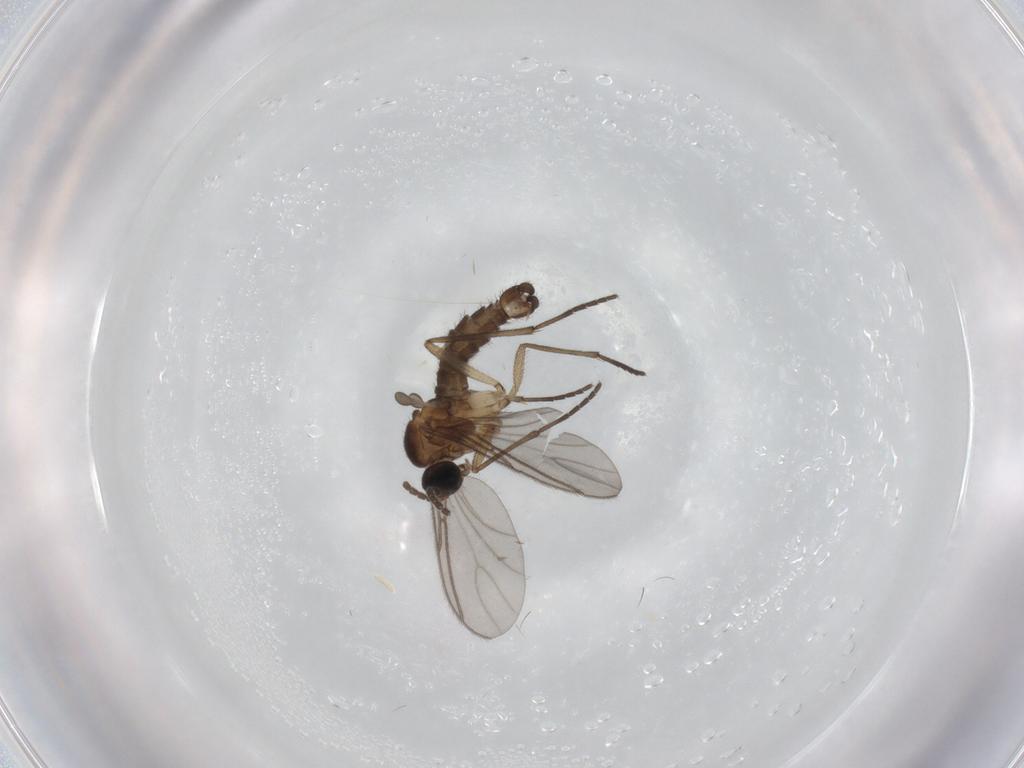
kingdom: Animalia
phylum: Arthropoda
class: Insecta
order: Diptera
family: Sciaridae
